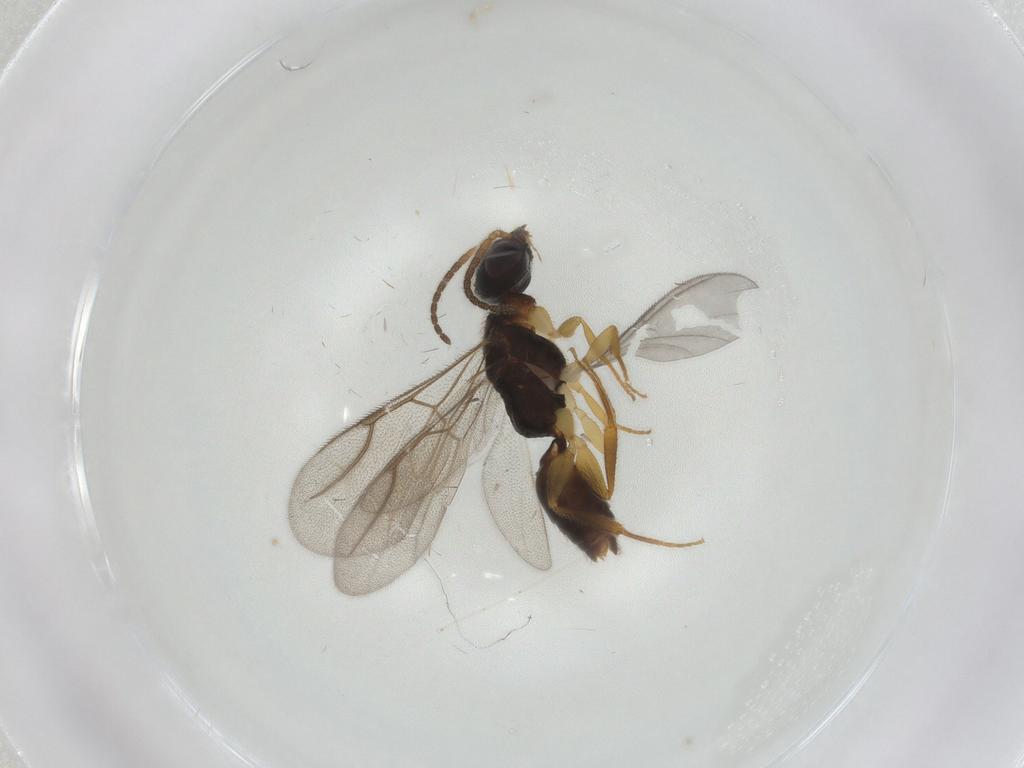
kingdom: Animalia
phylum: Arthropoda
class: Insecta
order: Hymenoptera
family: Bethylidae
